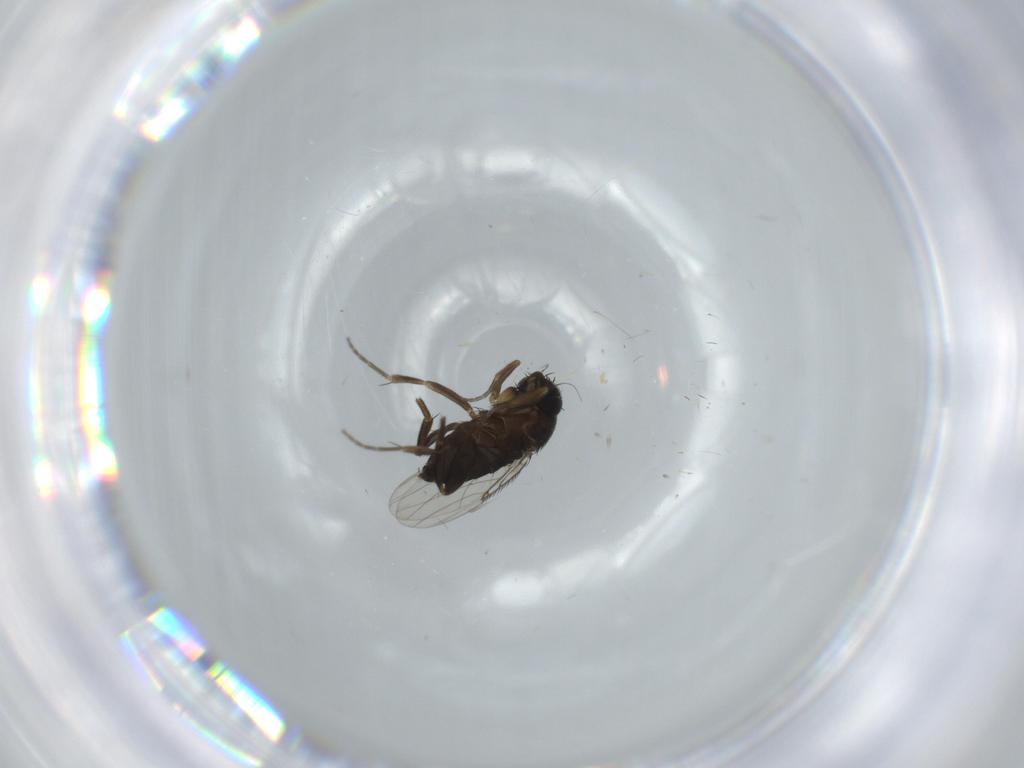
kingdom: Animalia
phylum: Arthropoda
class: Insecta
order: Diptera
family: Phoridae
